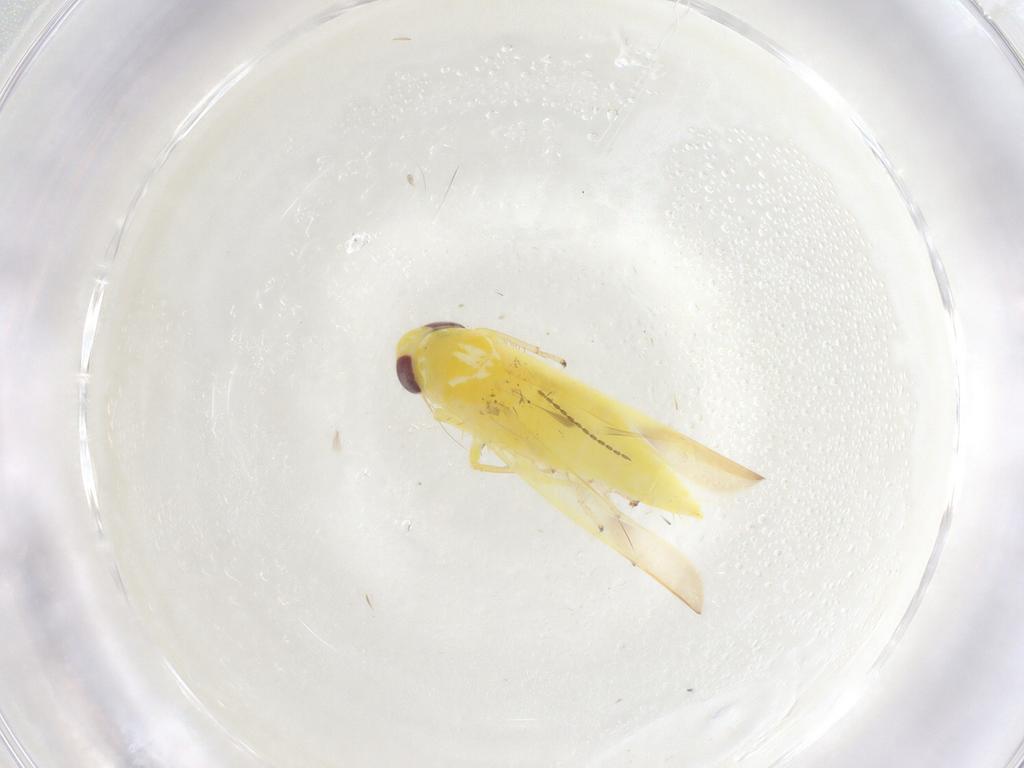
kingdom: Animalia
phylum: Arthropoda
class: Insecta
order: Hemiptera
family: Cicadellidae
